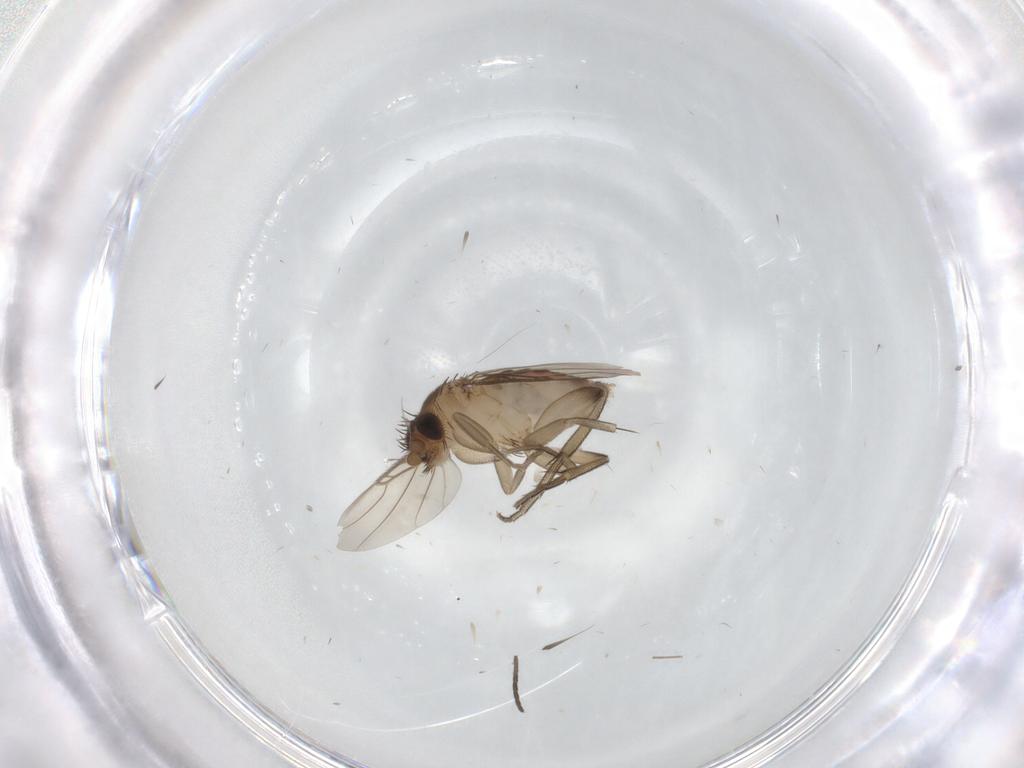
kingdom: Animalia
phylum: Arthropoda
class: Insecta
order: Diptera
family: Phoridae
